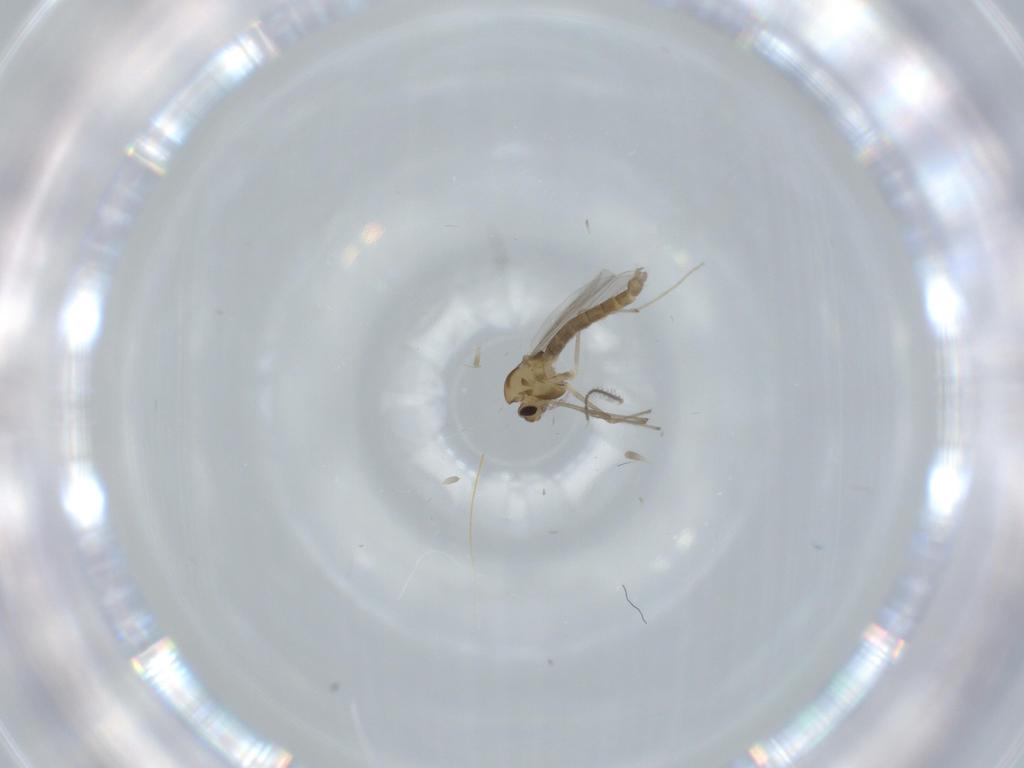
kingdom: Animalia
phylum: Arthropoda
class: Insecta
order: Diptera
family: Chironomidae
